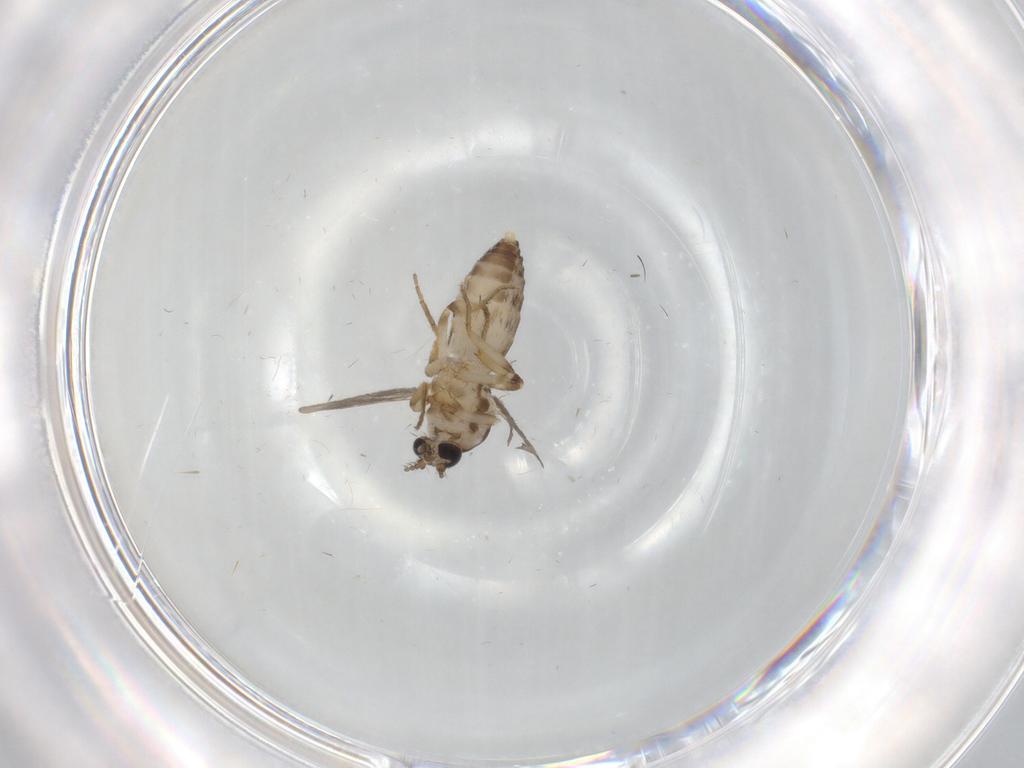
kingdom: Animalia
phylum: Arthropoda
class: Insecta
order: Diptera
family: Ceratopogonidae
